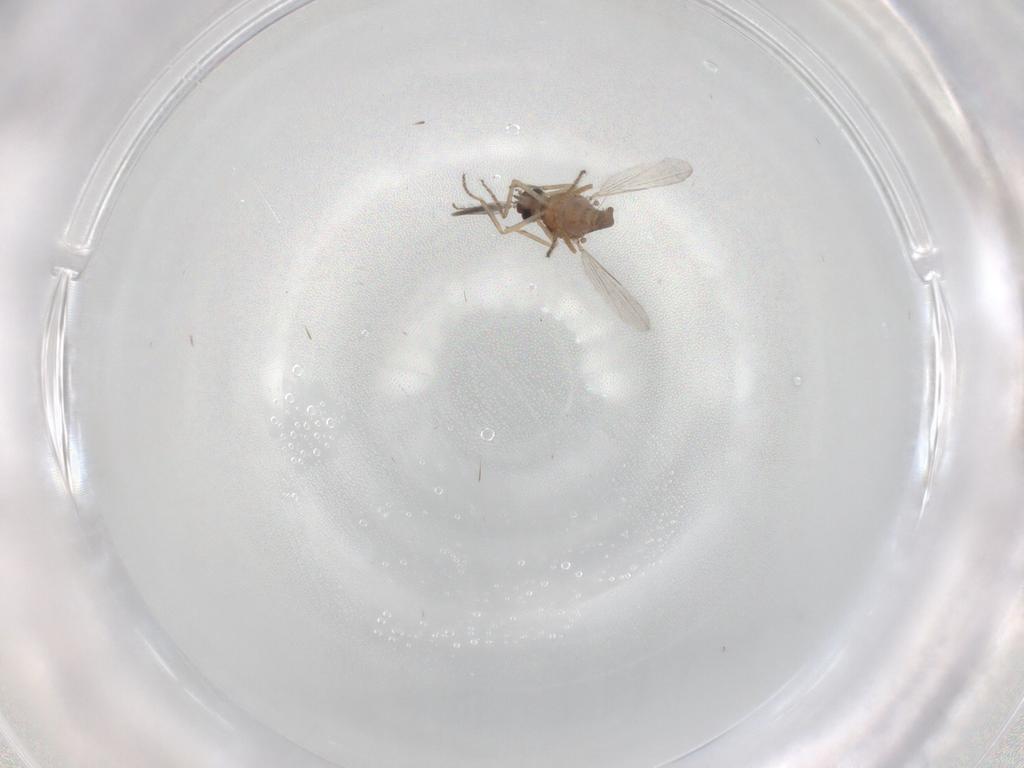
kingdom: Animalia
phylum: Arthropoda
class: Insecta
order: Diptera
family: Ceratopogonidae
